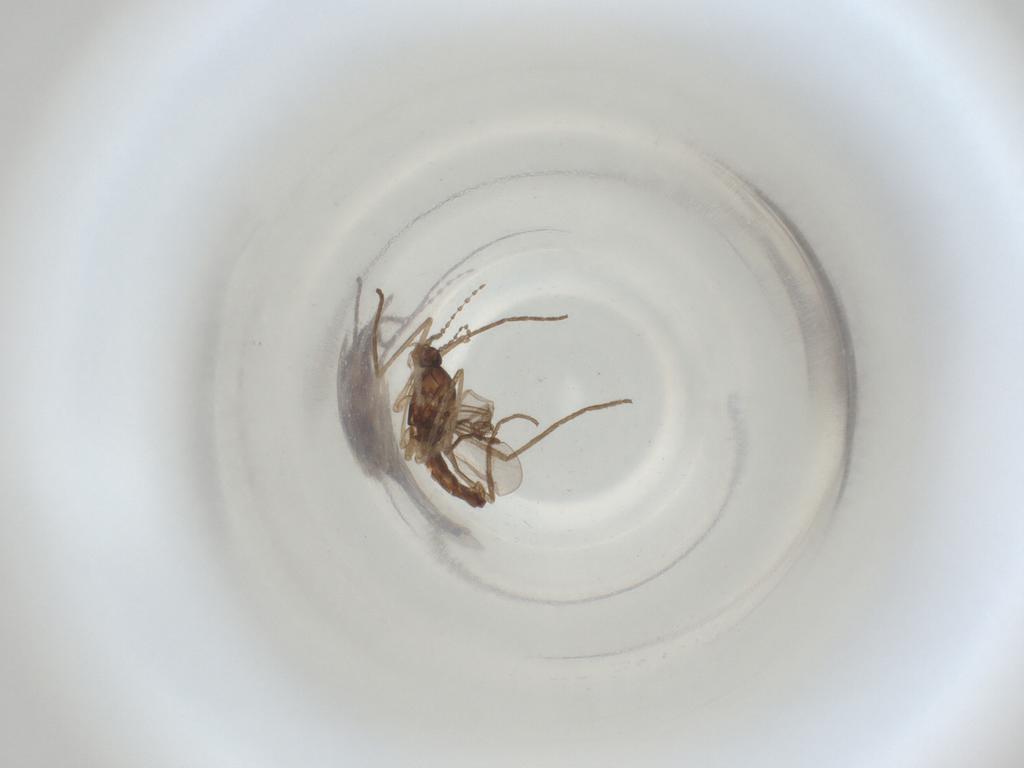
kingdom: Animalia
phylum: Arthropoda
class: Insecta
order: Diptera
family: Cecidomyiidae
